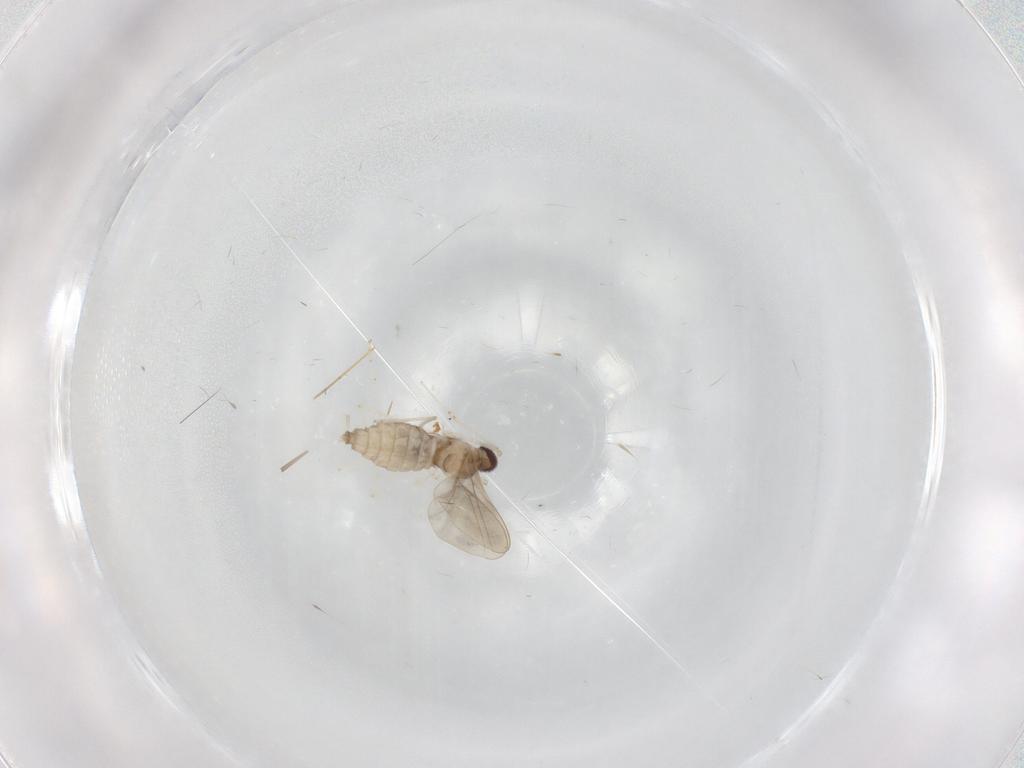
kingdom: Animalia
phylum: Arthropoda
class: Insecta
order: Diptera
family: Cecidomyiidae
